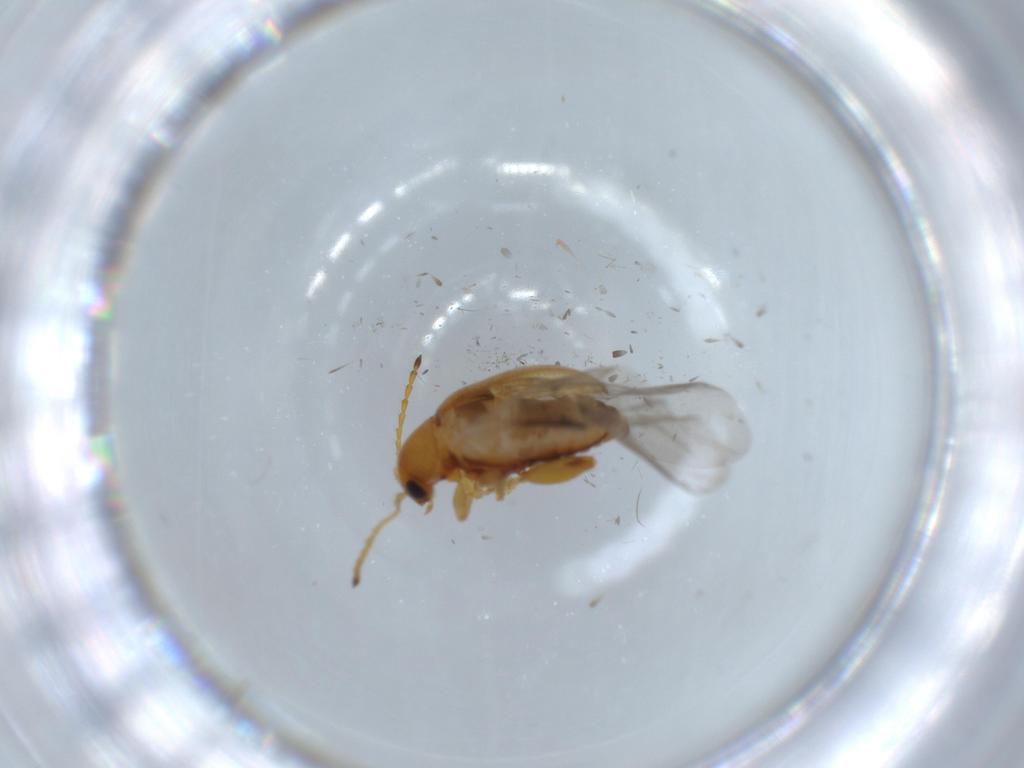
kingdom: Animalia
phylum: Arthropoda
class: Insecta
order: Coleoptera
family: Chrysomelidae
